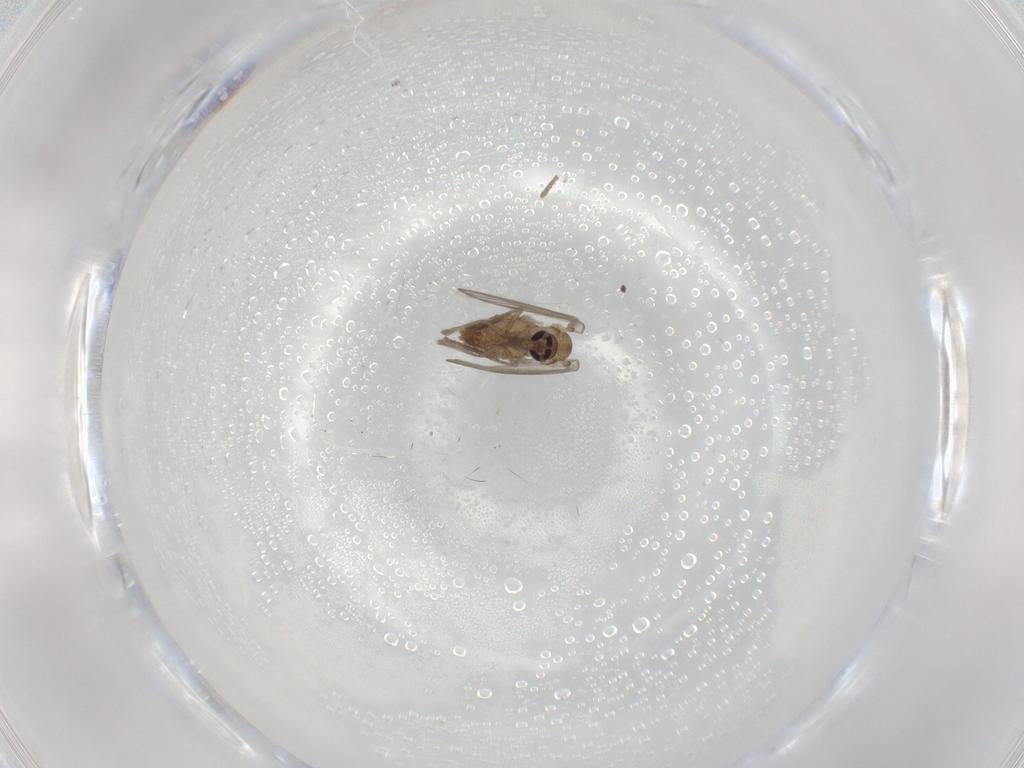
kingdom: Animalia
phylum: Arthropoda
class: Insecta
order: Diptera
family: Psychodidae
